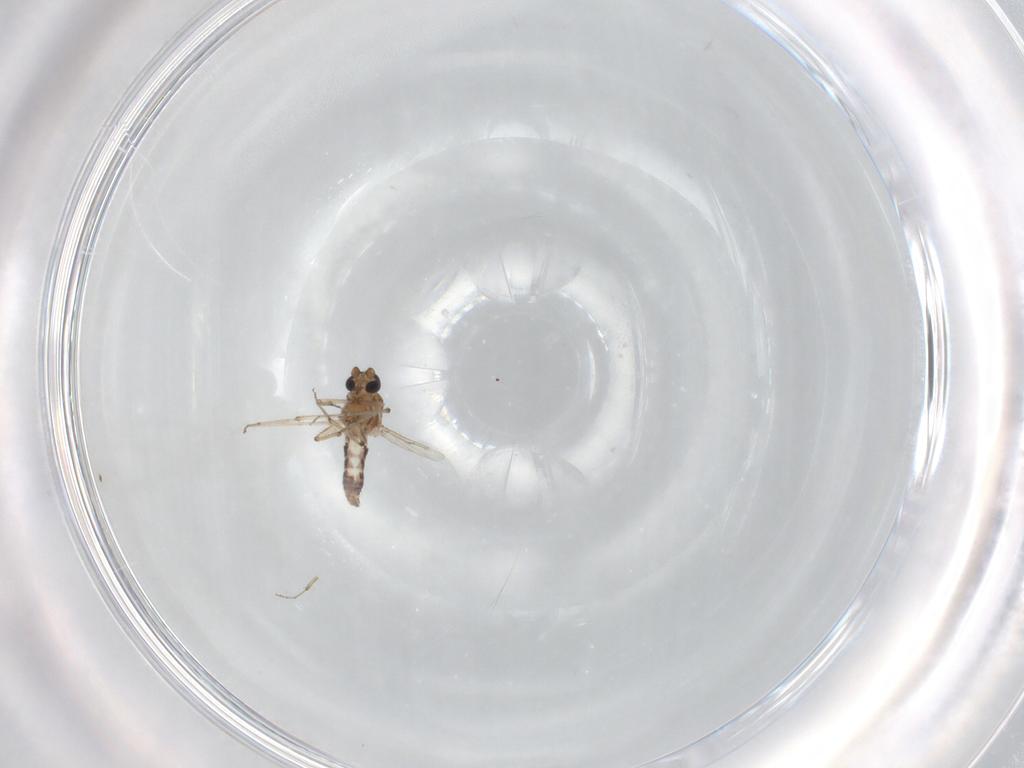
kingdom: Animalia
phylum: Arthropoda
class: Insecta
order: Diptera
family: Ceratopogonidae
